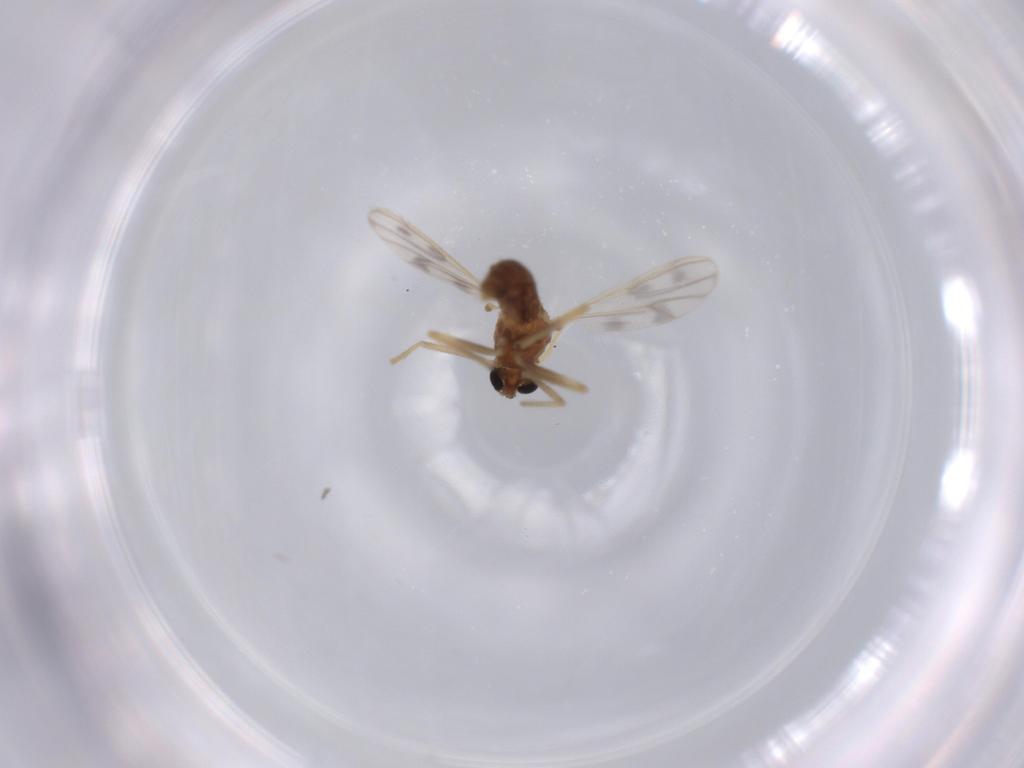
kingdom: Animalia
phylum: Arthropoda
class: Insecta
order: Diptera
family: Chironomidae
